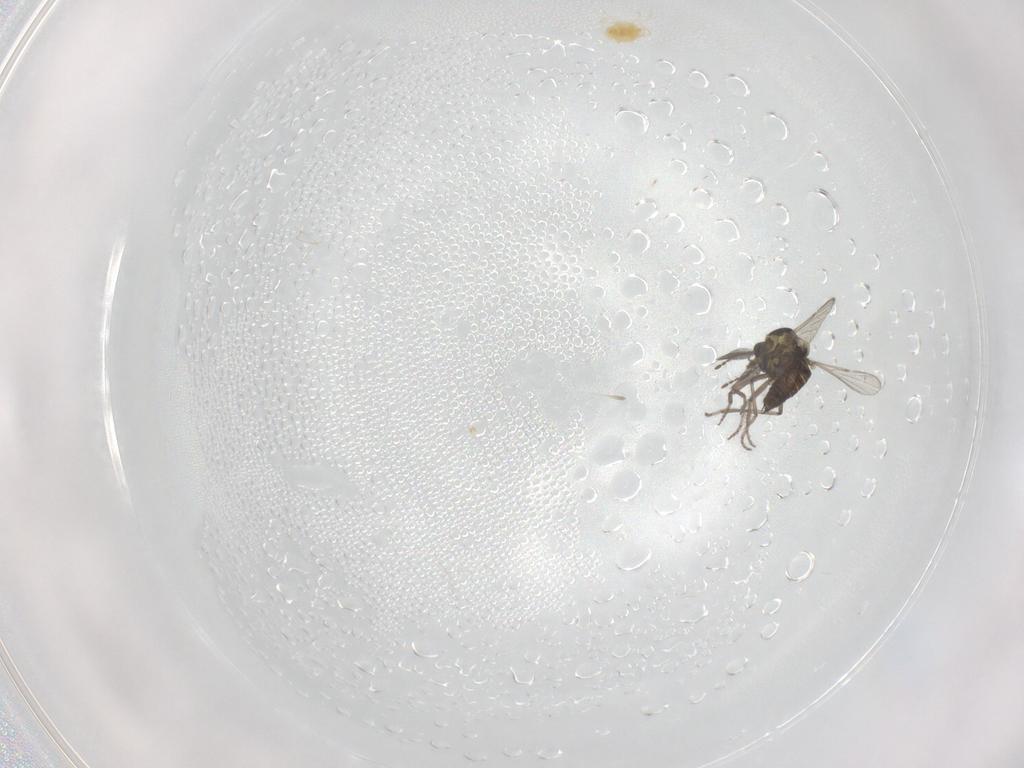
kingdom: Animalia
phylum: Arthropoda
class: Insecta
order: Diptera
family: Ceratopogonidae
